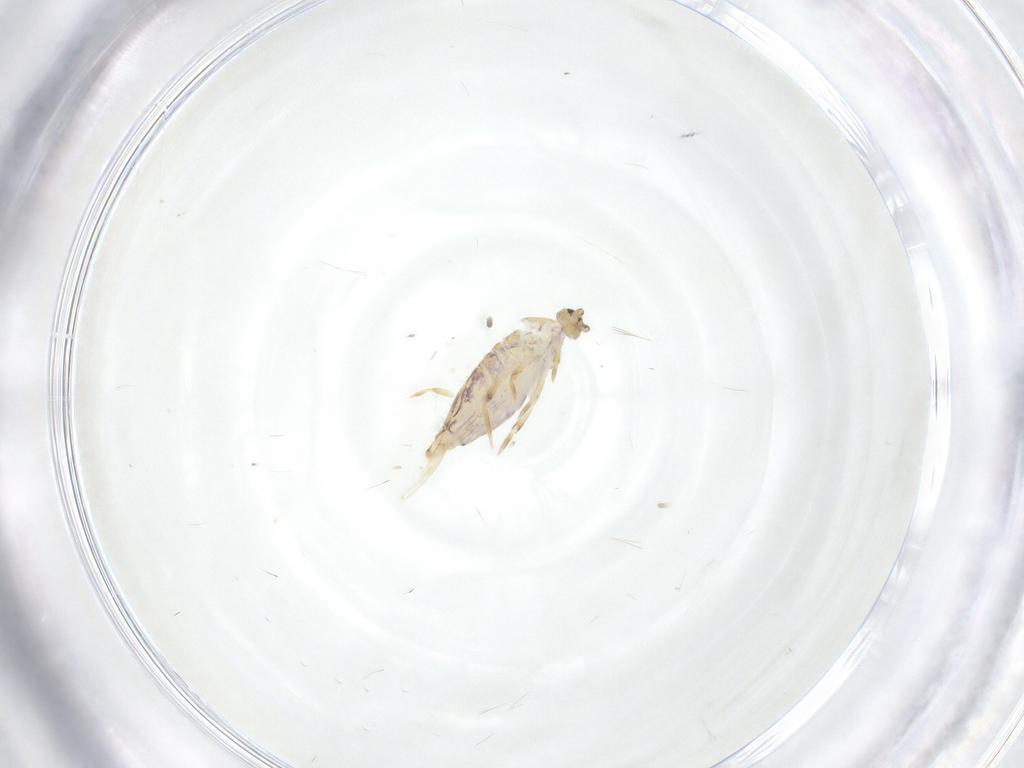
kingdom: Animalia
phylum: Arthropoda
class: Collembola
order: Entomobryomorpha
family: Entomobryidae
